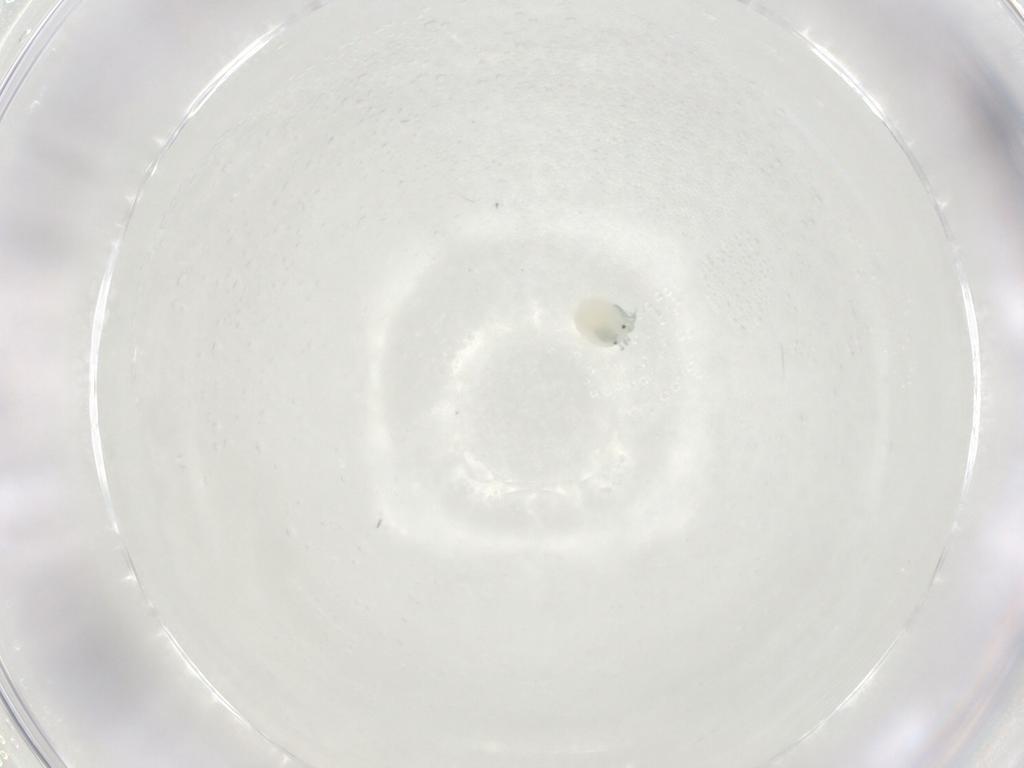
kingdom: Animalia
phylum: Arthropoda
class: Arachnida
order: Trombidiformes
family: Arrenuridae
